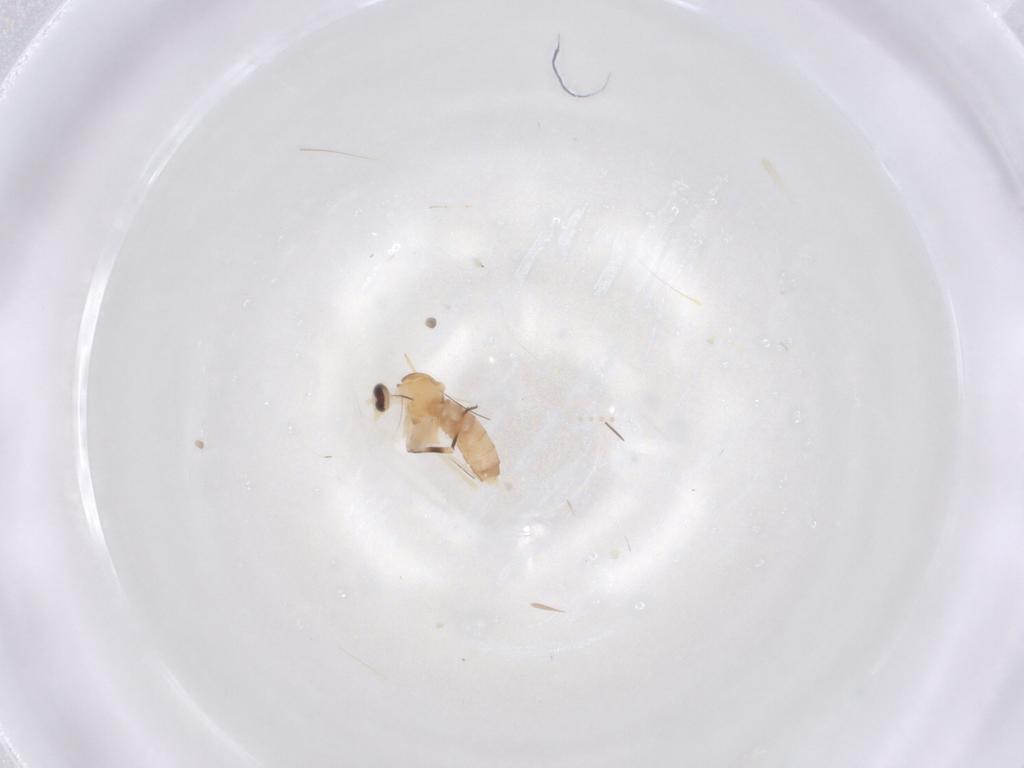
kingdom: Animalia
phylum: Arthropoda
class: Insecta
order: Diptera
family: Cecidomyiidae
